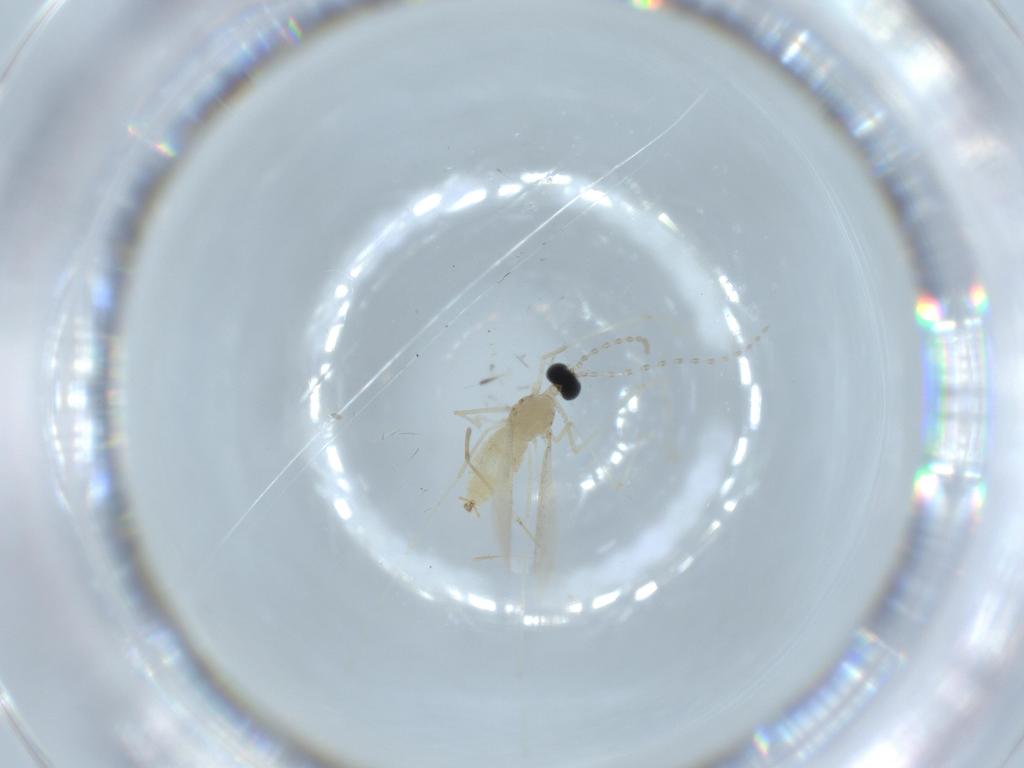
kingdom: Animalia
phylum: Arthropoda
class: Insecta
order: Diptera
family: Cecidomyiidae
